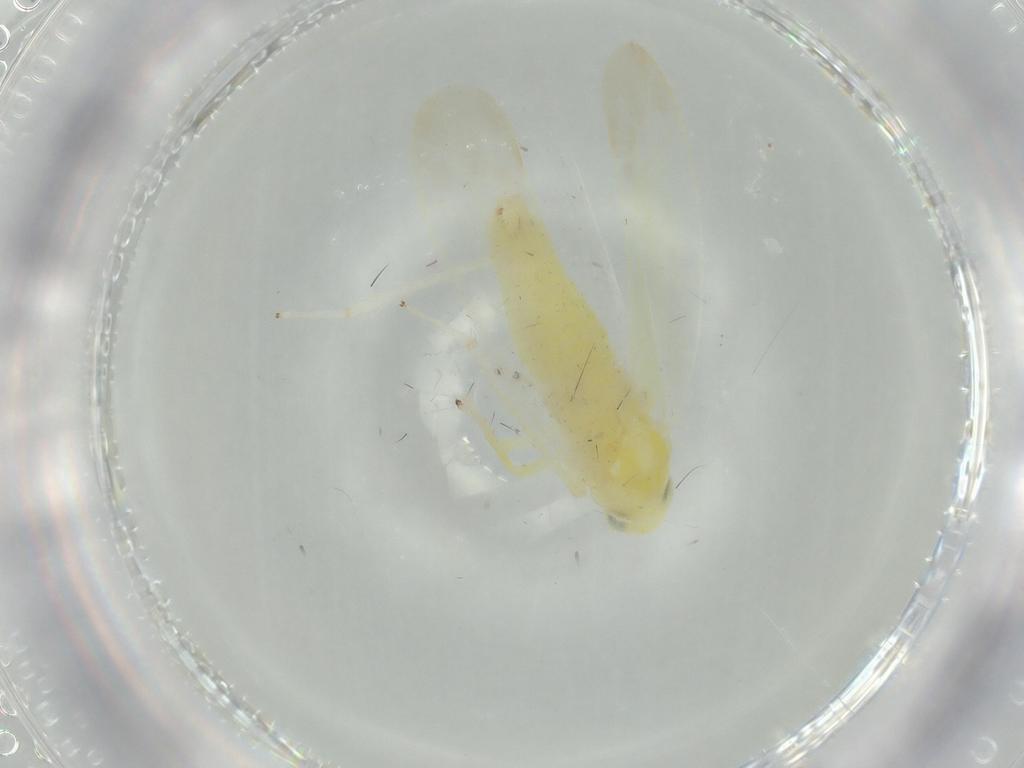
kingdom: Animalia
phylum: Arthropoda
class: Insecta
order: Hemiptera
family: Cicadellidae
